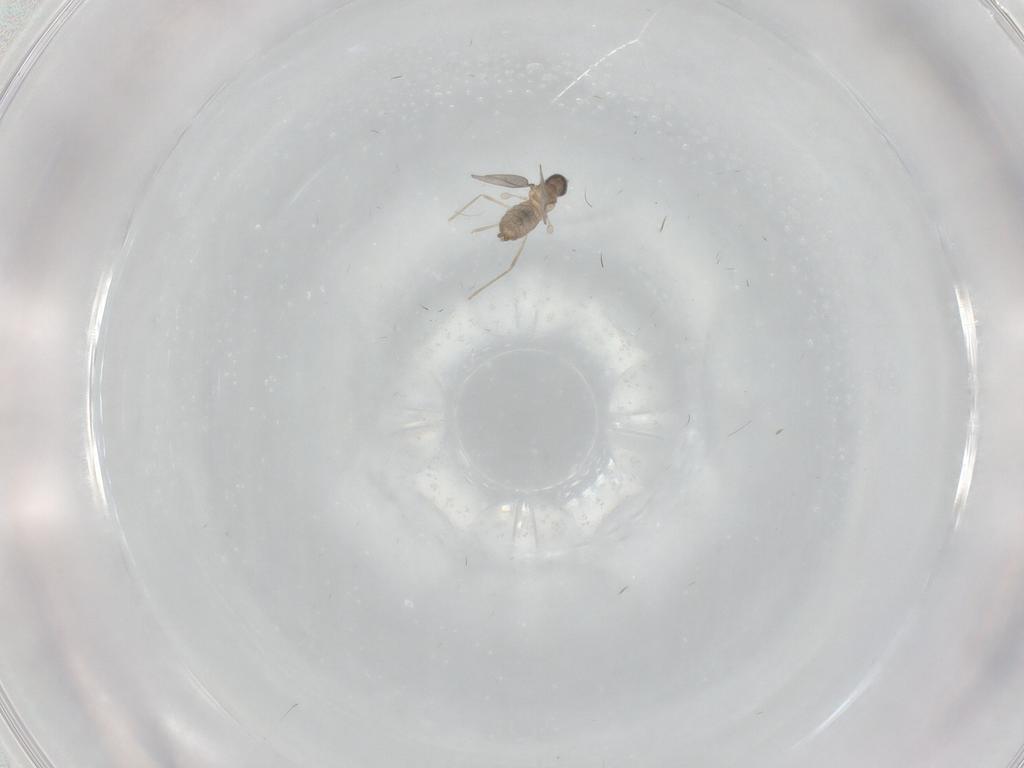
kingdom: Animalia
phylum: Arthropoda
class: Insecta
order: Diptera
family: Cecidomyiidae
